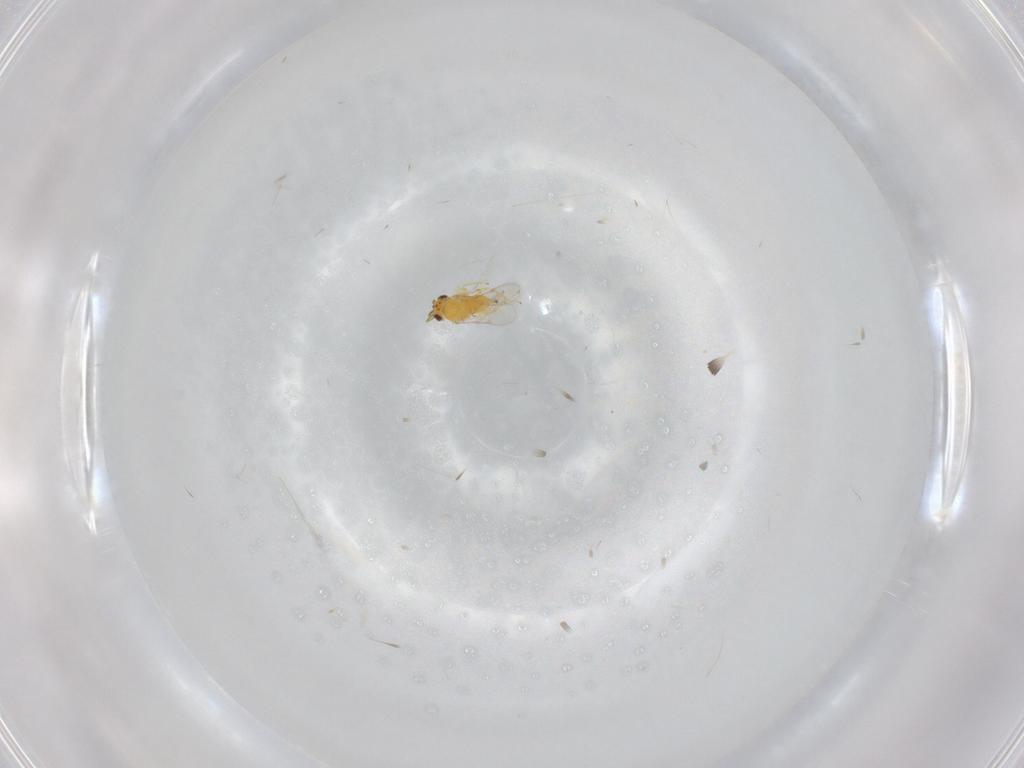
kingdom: Animalia
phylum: Arthropoda
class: Insecta
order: Hymenoptera
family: Aphelinidae
